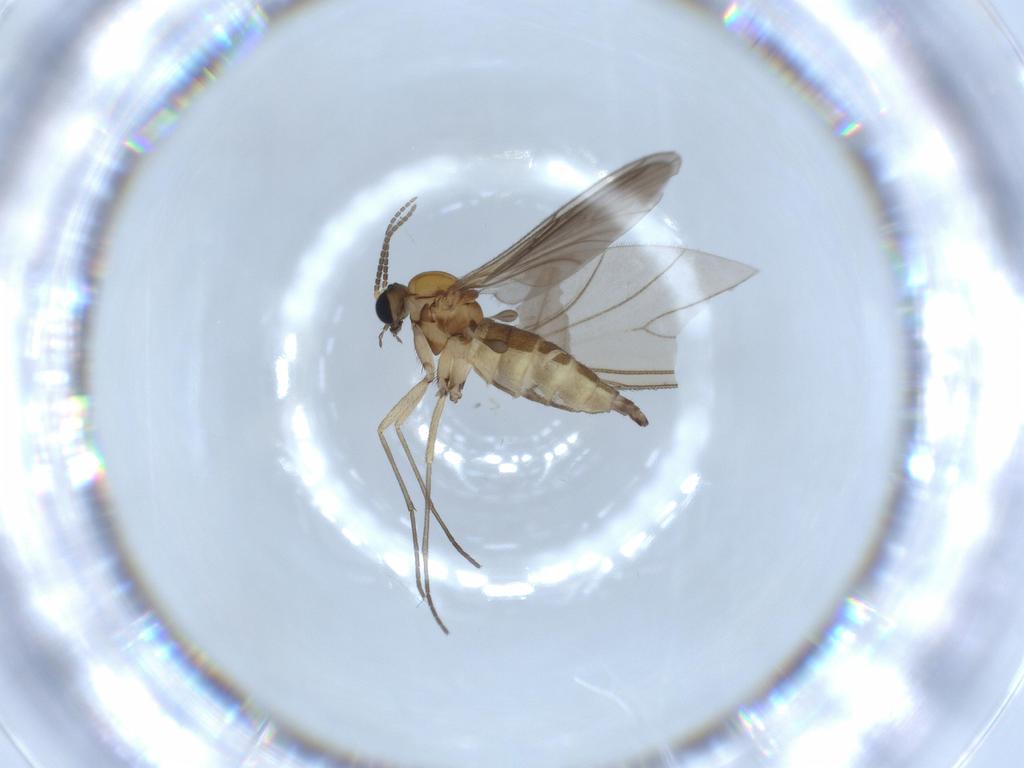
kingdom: Animalia
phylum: Arthropoda
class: Insecta
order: Diptera
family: Sciaridae
